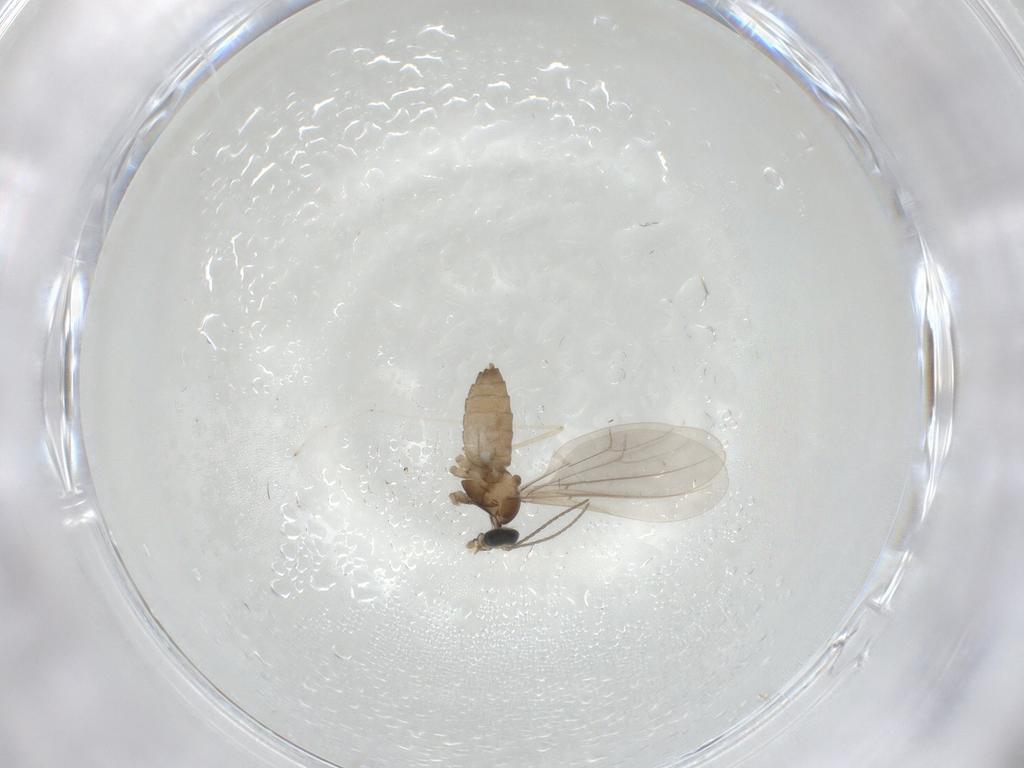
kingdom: Animalia
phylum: Arthropoda
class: Insecta
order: Diptera
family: Cecidomyiidae
